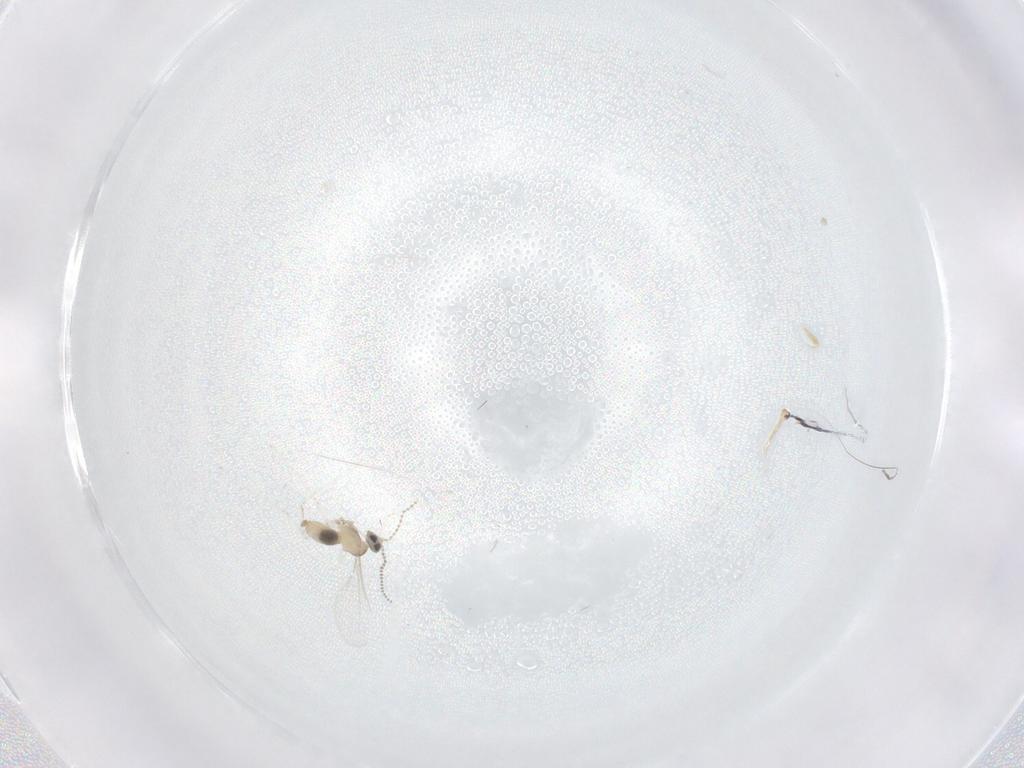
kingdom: Animalia
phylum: Arthropoda
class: Insecta
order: Diptera
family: Cecidomyiidae
